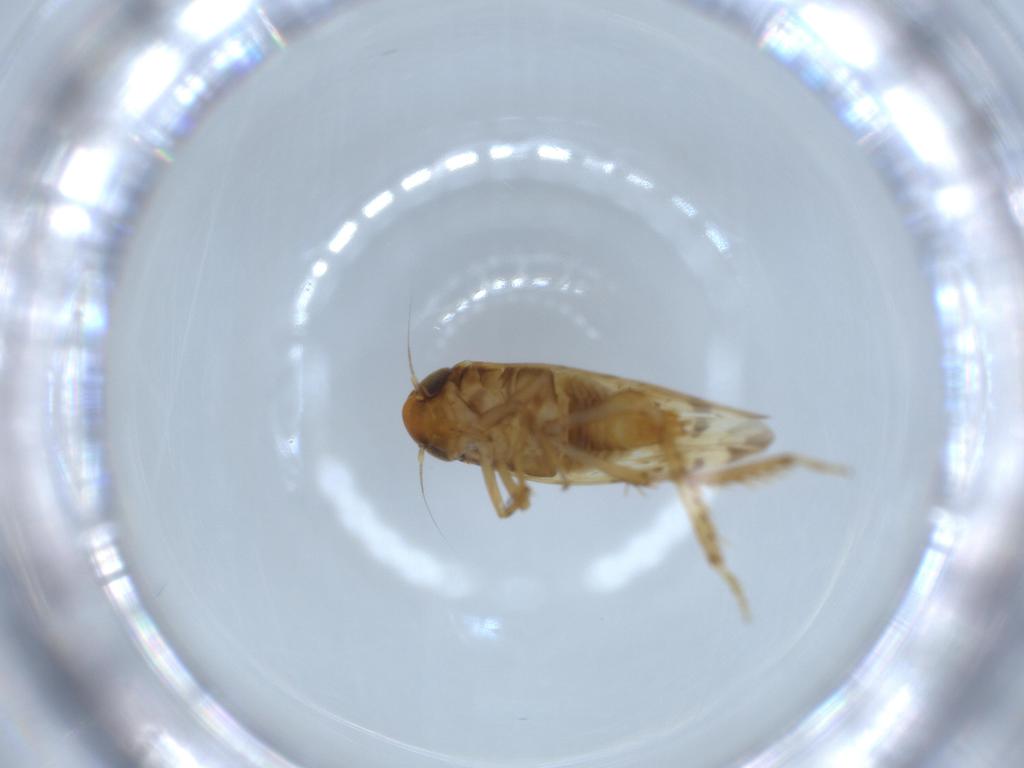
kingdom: Animalia
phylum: Arthropoda
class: Insecta
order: Hemiptera
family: Cicadellidae
